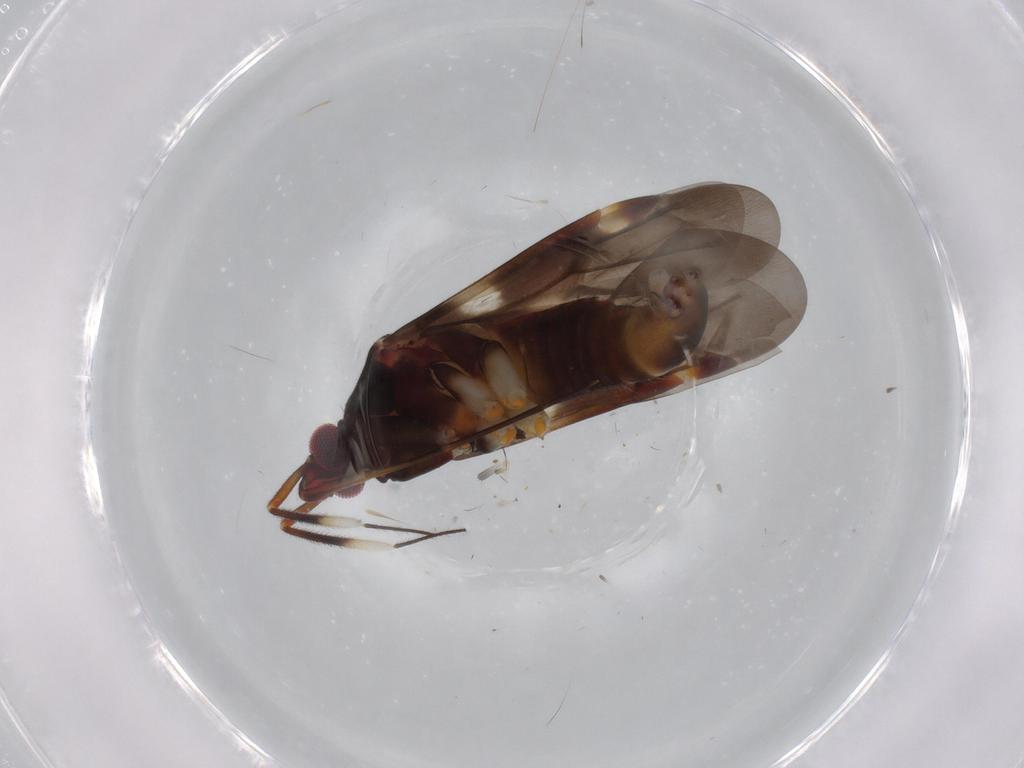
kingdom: Animalia
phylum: Arthropoda
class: Insecta
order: Hemiptera
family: Miridae
